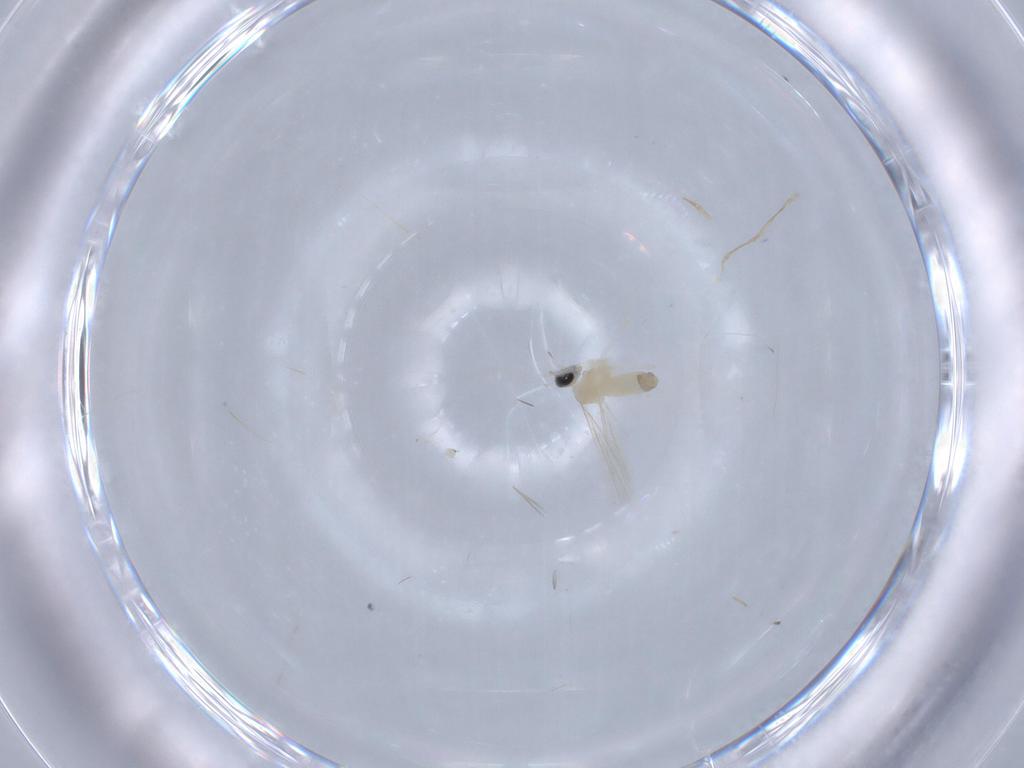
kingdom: Animalia
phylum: Arthropoda
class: Insecta
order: Diptera
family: Cecidomyiidae
